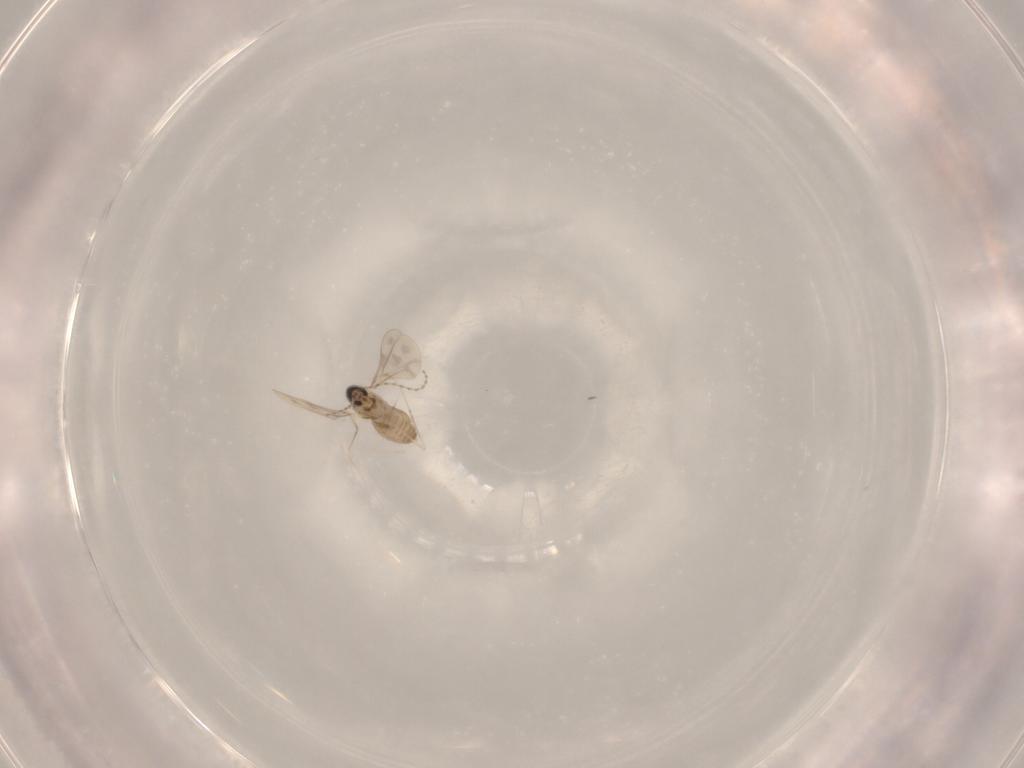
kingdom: Animalia
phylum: Arthropoda
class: Insecta
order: Diptera
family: Cecidomyiidae
